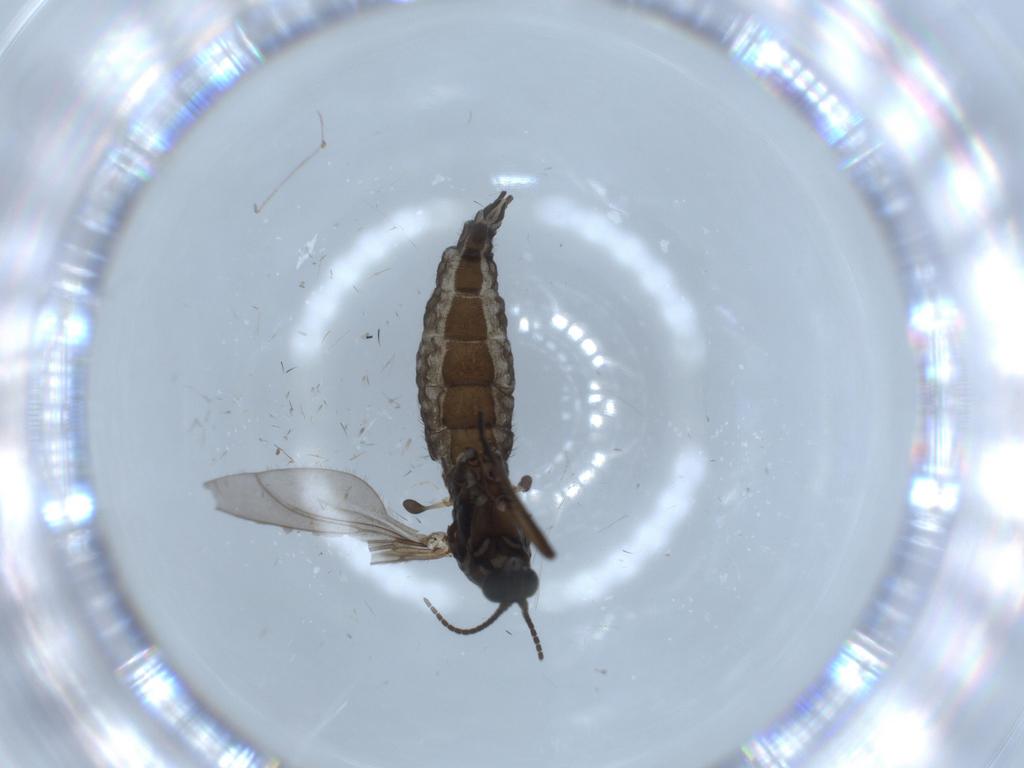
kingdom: Animalia
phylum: Arthropoda
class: Insecta
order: Diptera
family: Sciaridae
